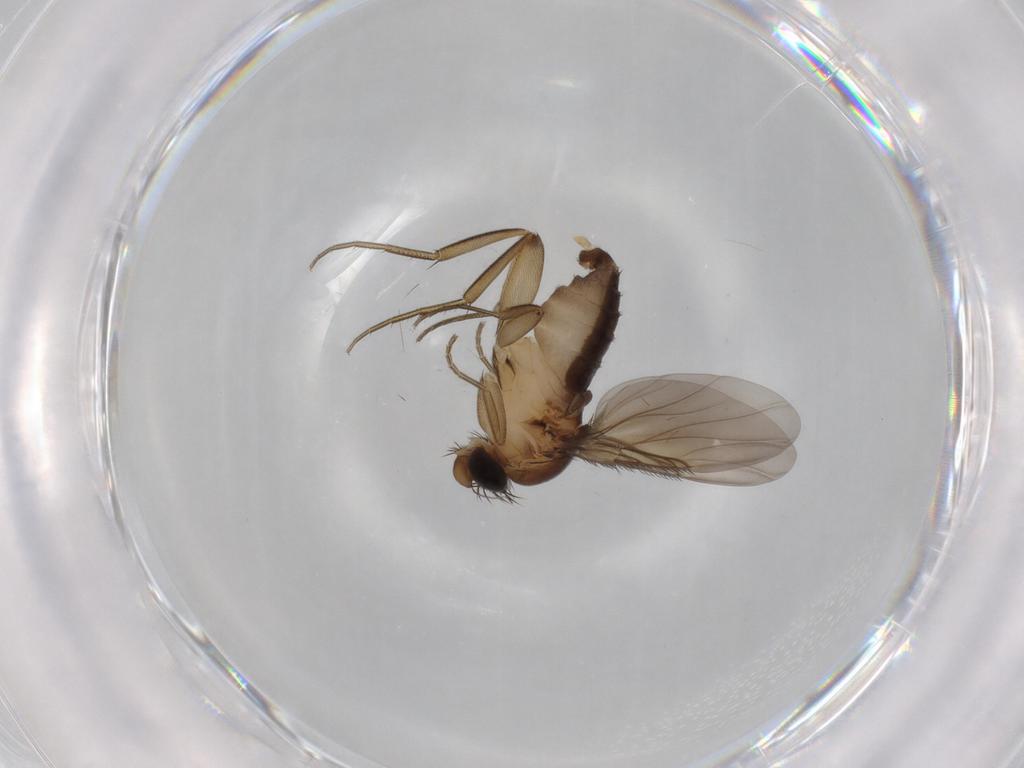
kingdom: Animalia
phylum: Arthropoda
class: Insecta
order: Diptera
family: Phoridae
